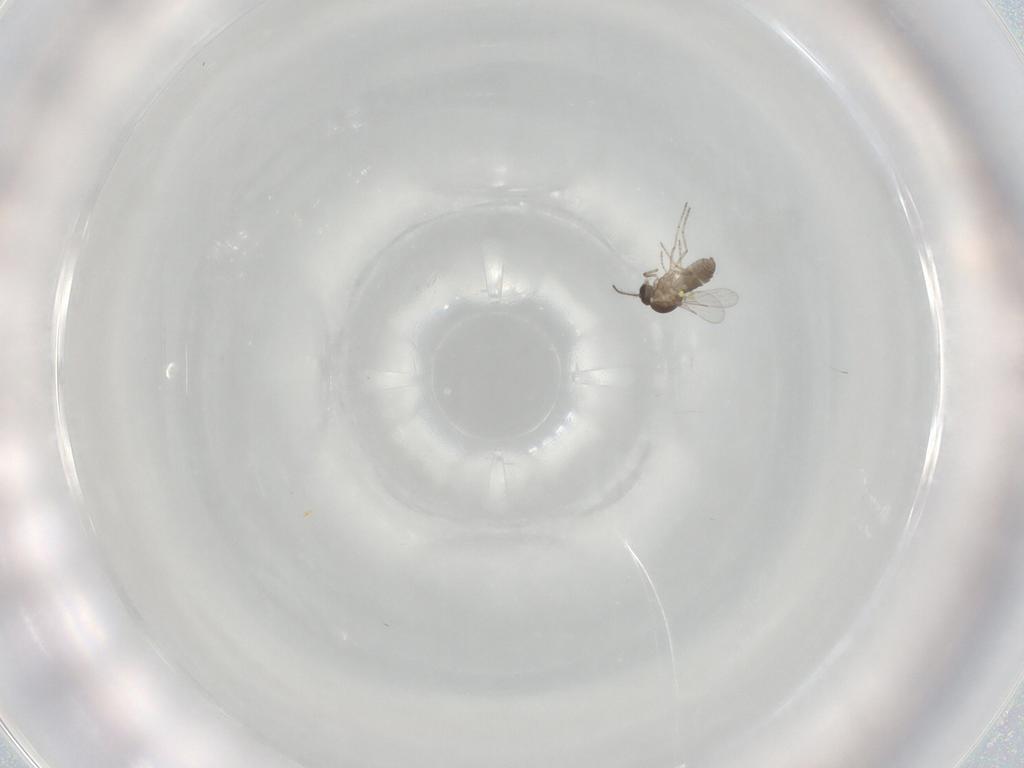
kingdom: Animalia
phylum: Arthropoda
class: Insecta
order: Diptera
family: Ceratopogonidae
